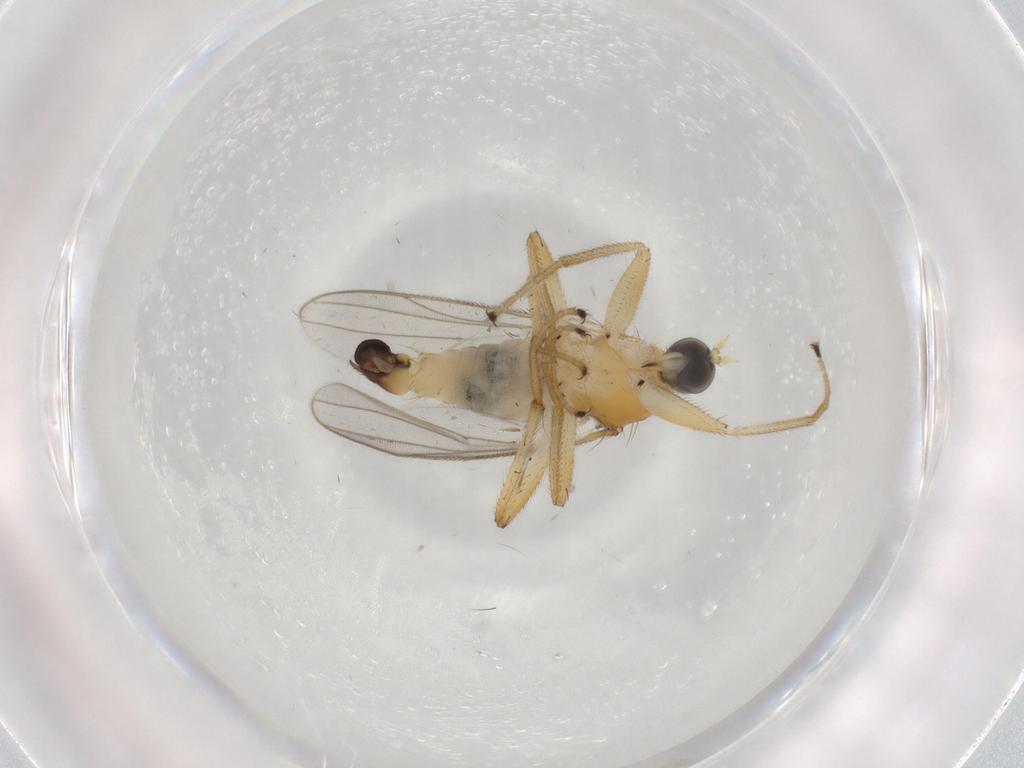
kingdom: Animalia
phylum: Arthropoda
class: Insecta
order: Diptera
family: Hybotidae
